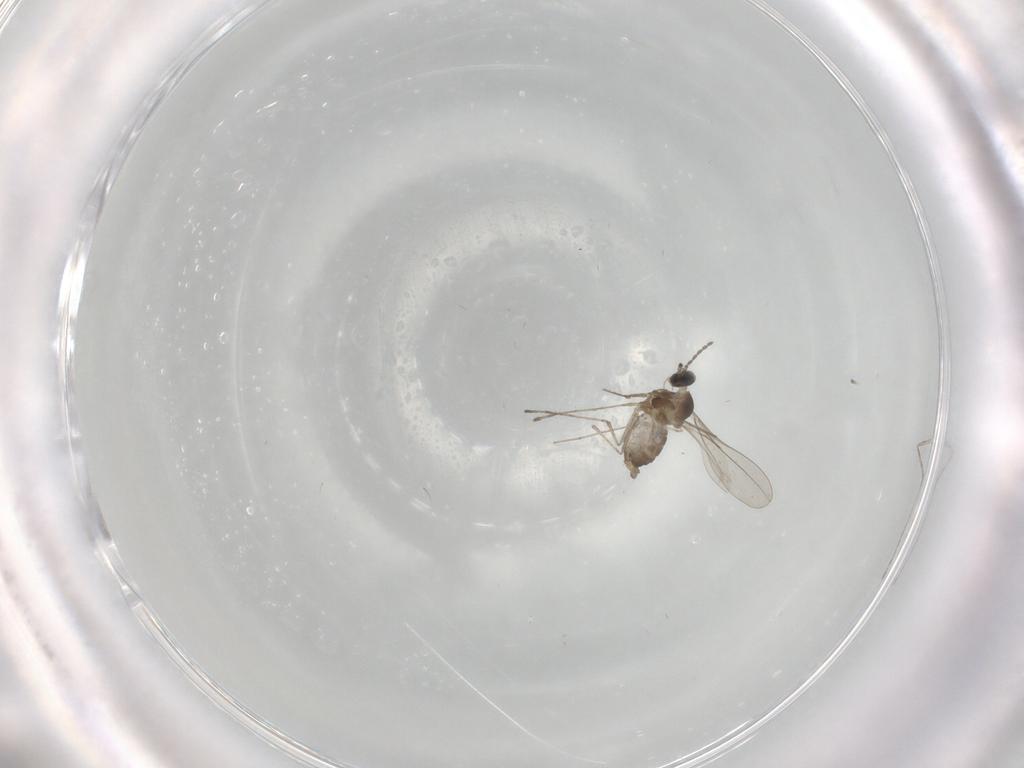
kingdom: Animalia
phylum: Arthropoda
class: Insecta
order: Diptera
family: Cecidomyiidae
